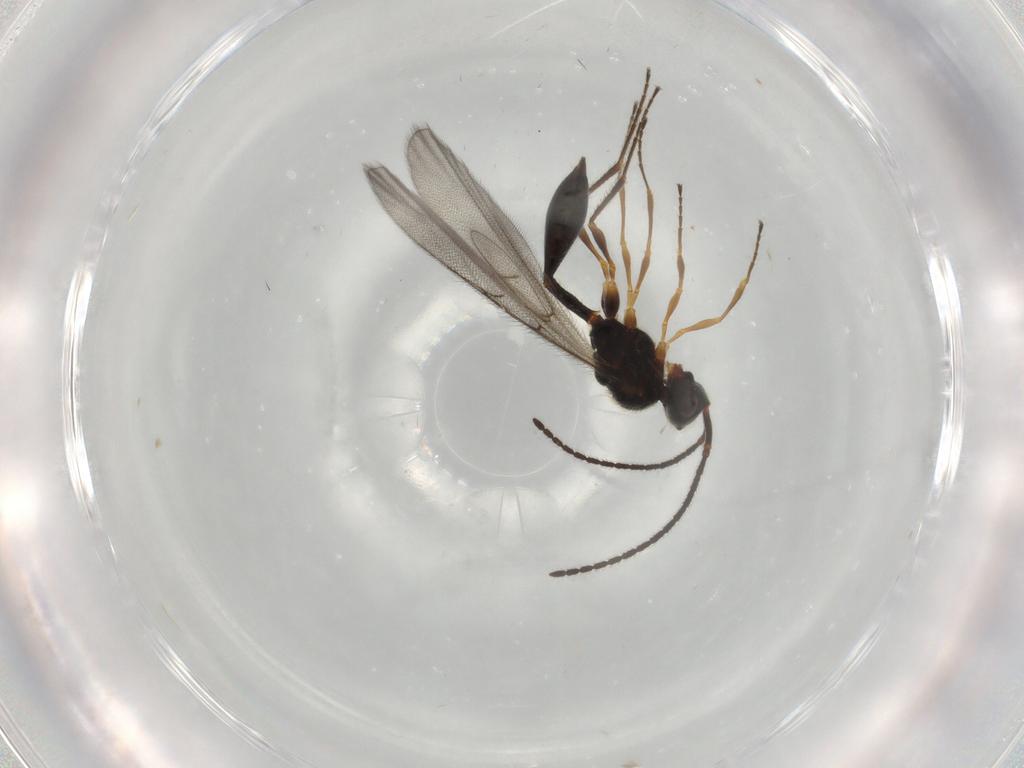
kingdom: Animalia
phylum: Arthropoda
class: Insecta
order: Hymenoptera
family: Diapriidae
